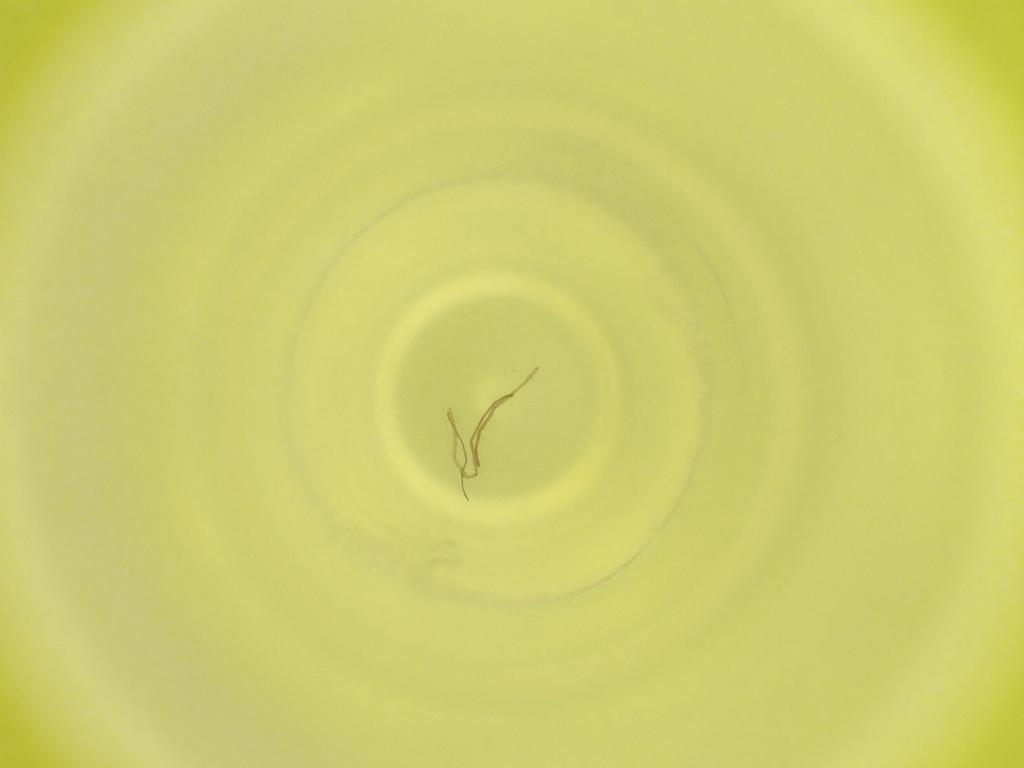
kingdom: Animalia
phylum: Arthropoda
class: Insecta
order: Diptera
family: Cecidomyiidae
